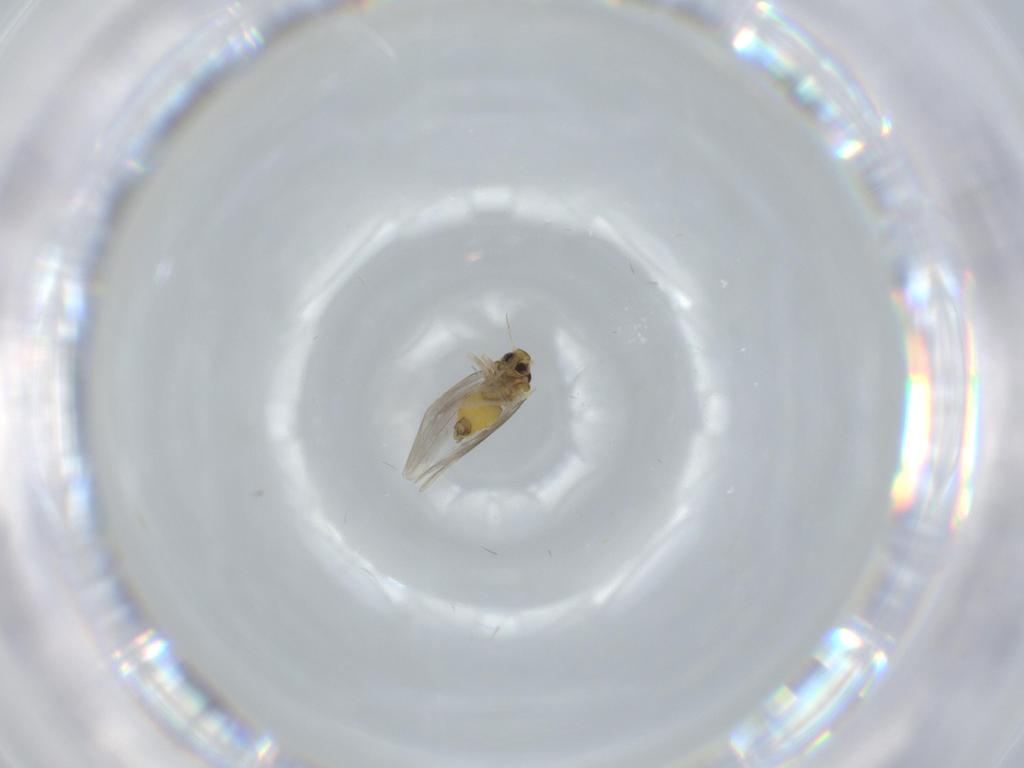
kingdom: Animalia
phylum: Arthropoda
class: Insecta
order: Hemiptera
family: Aleyrodidae
